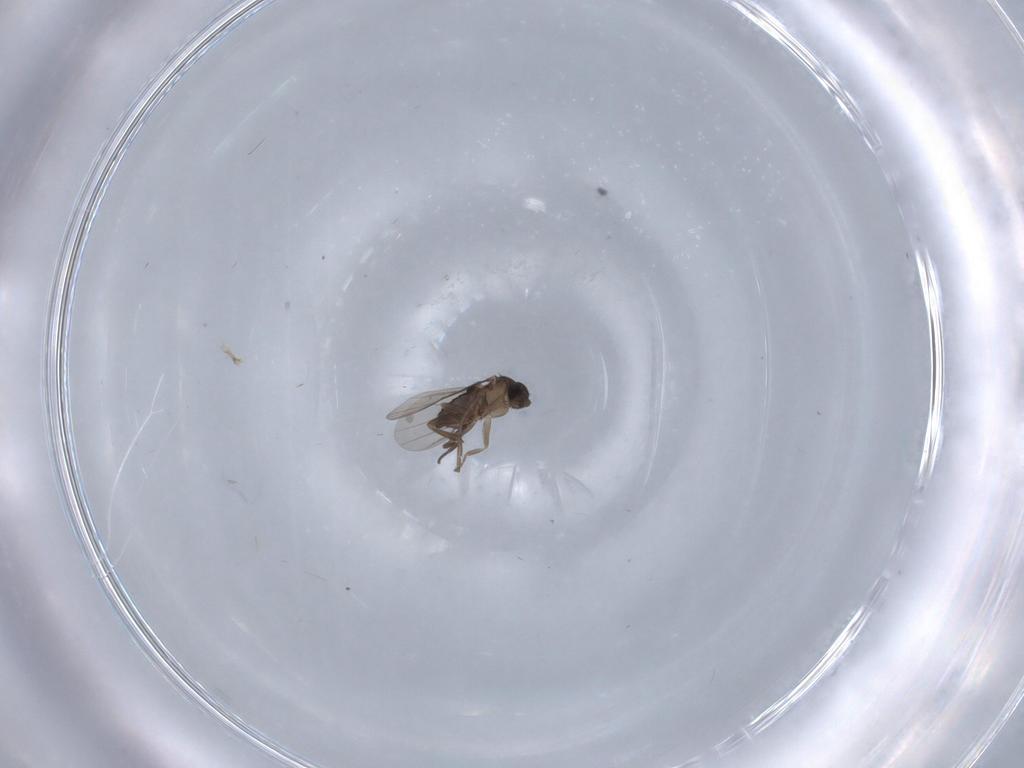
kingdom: Animalia
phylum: Arthropoda
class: Insecta
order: Diptera
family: Phoridae
